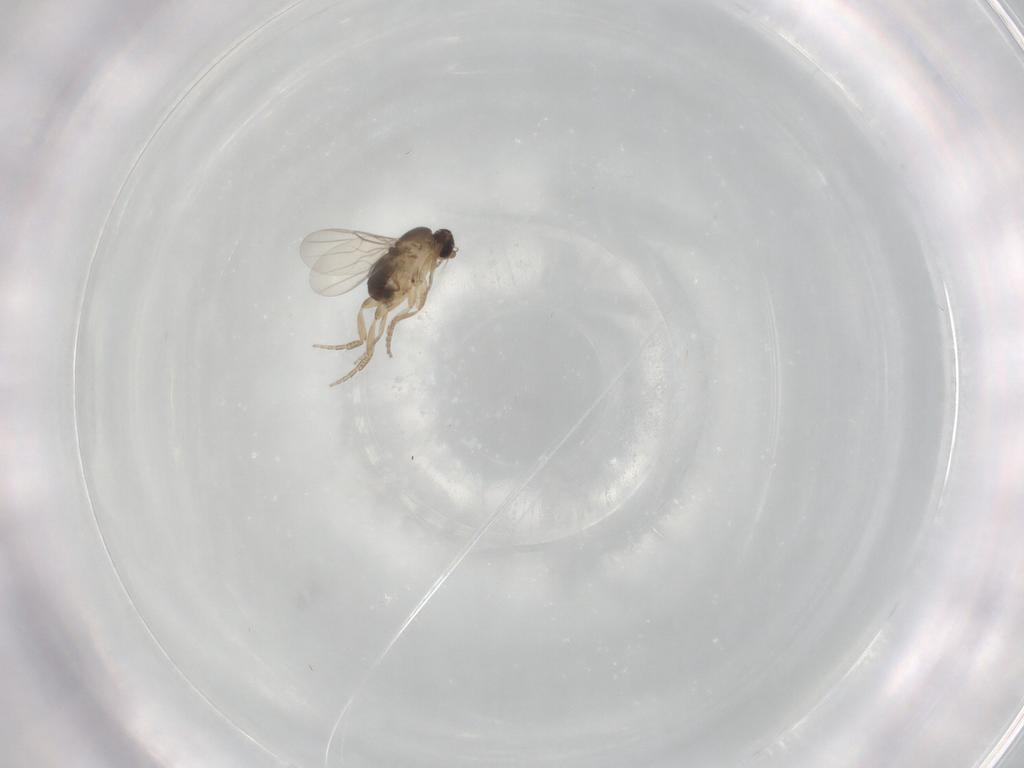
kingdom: Animalia
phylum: Arthropoda
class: Insecta
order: Diptera
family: Phoridae
